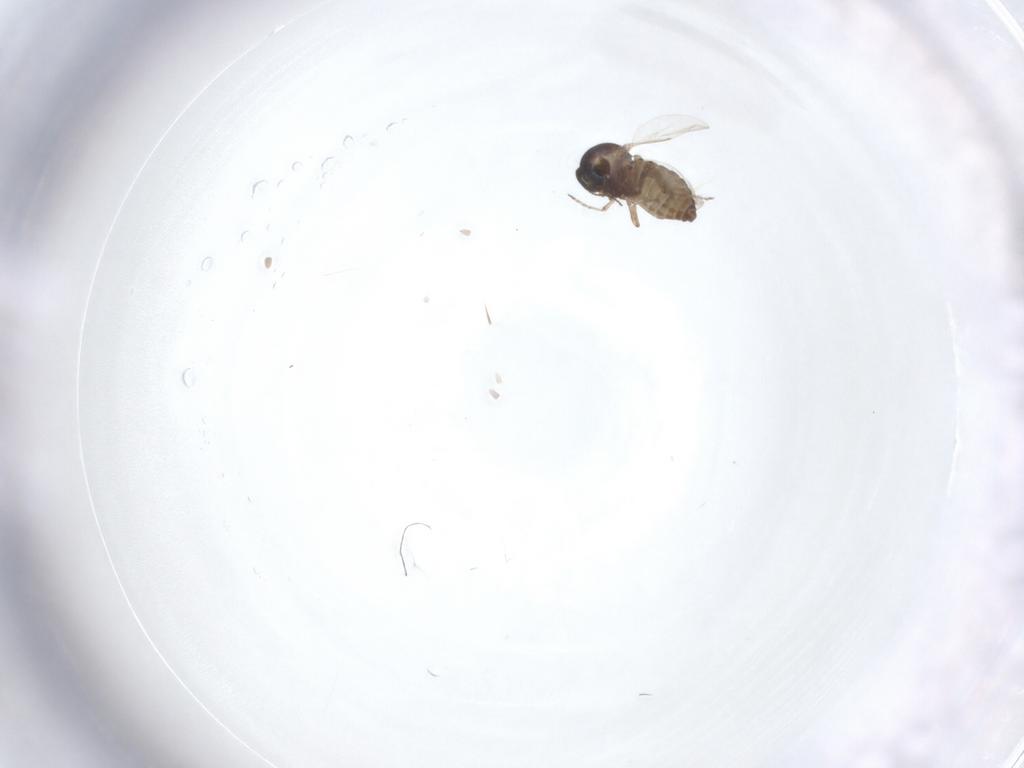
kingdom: Animalia
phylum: Arthropoda
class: Insecta
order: Diptera
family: Ceratopogonidae
